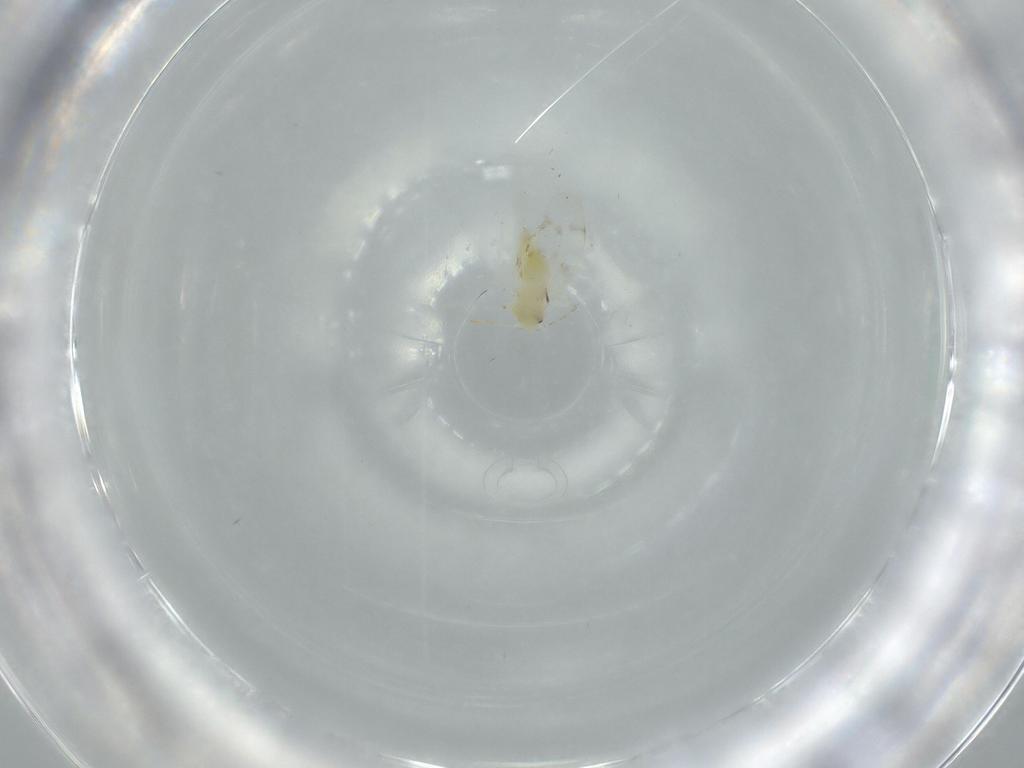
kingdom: Animalia
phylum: Arthropoda
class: Insecta
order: Hemiptera
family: Aleyrodidae
